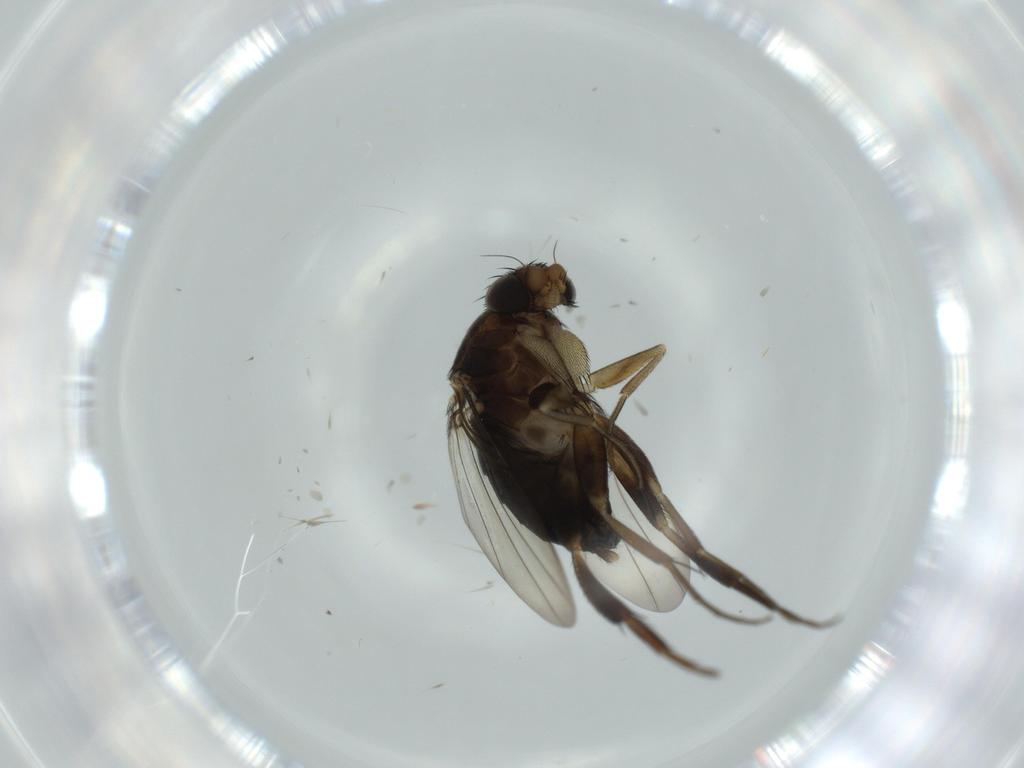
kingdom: Animalia
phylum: Arthropoda
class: Insecta
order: Diptera
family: Phoridae
